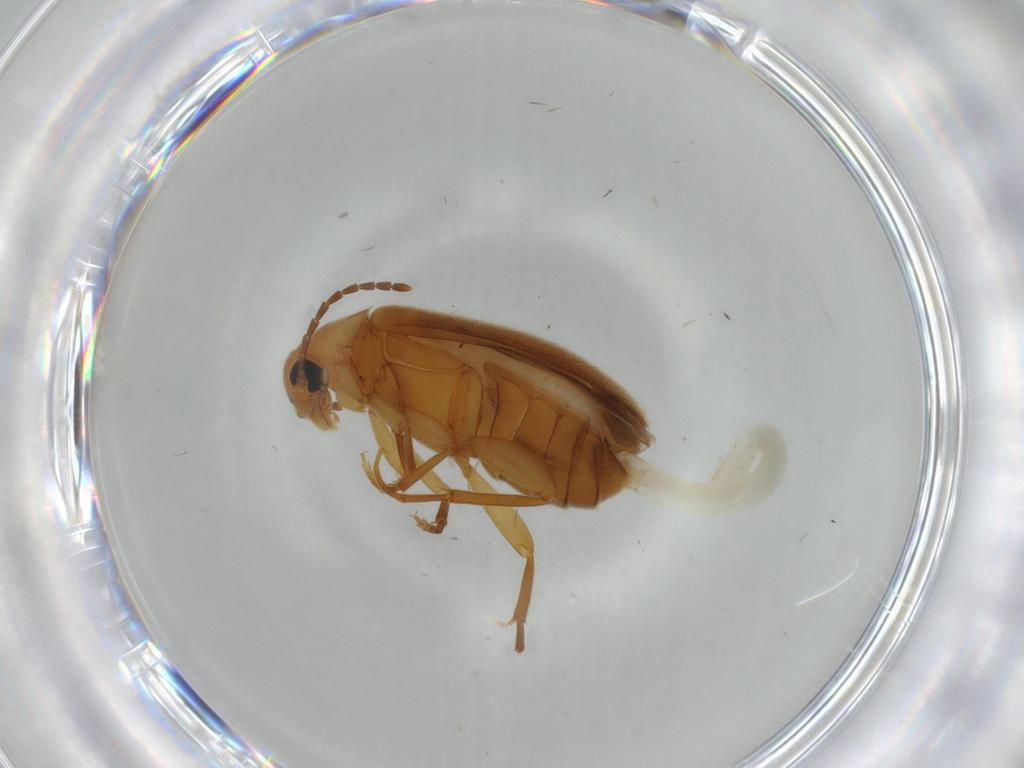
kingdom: Animalia
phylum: Arthropoda
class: Insecta
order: Coleoptera
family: Scraptiidae
